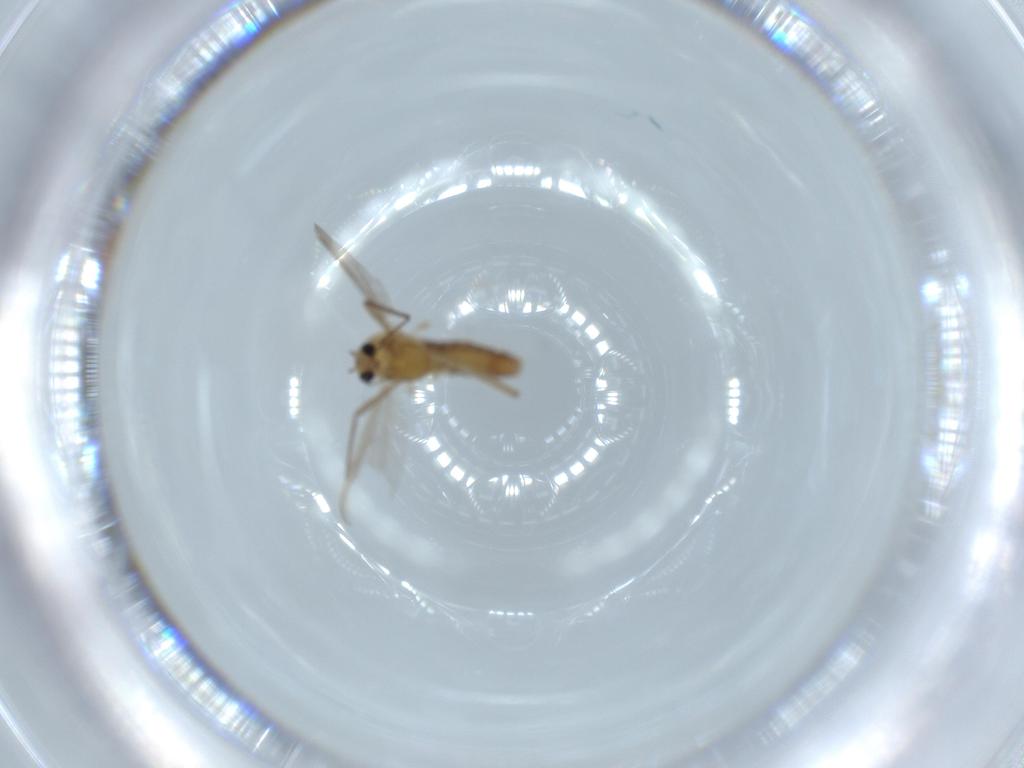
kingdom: Animalia
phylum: Arthropoda
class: Insecta
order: Diptera
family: Chironomidae
